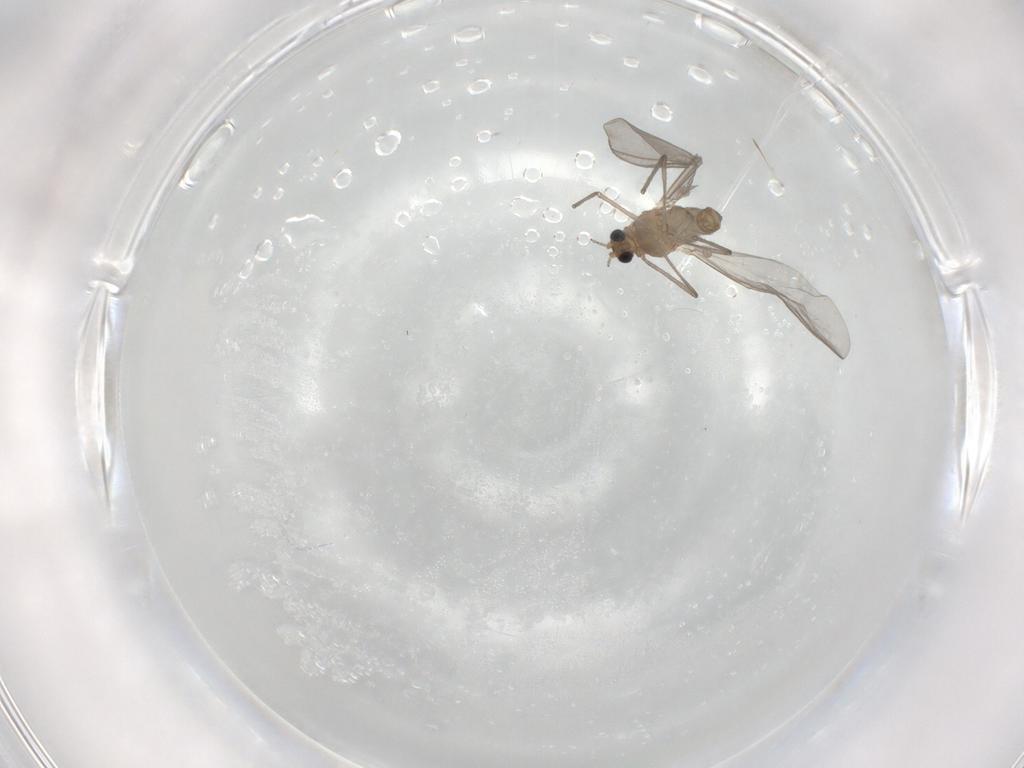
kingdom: Animalia
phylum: Arthropoda
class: Insecta
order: Diptera
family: Chironomidae
